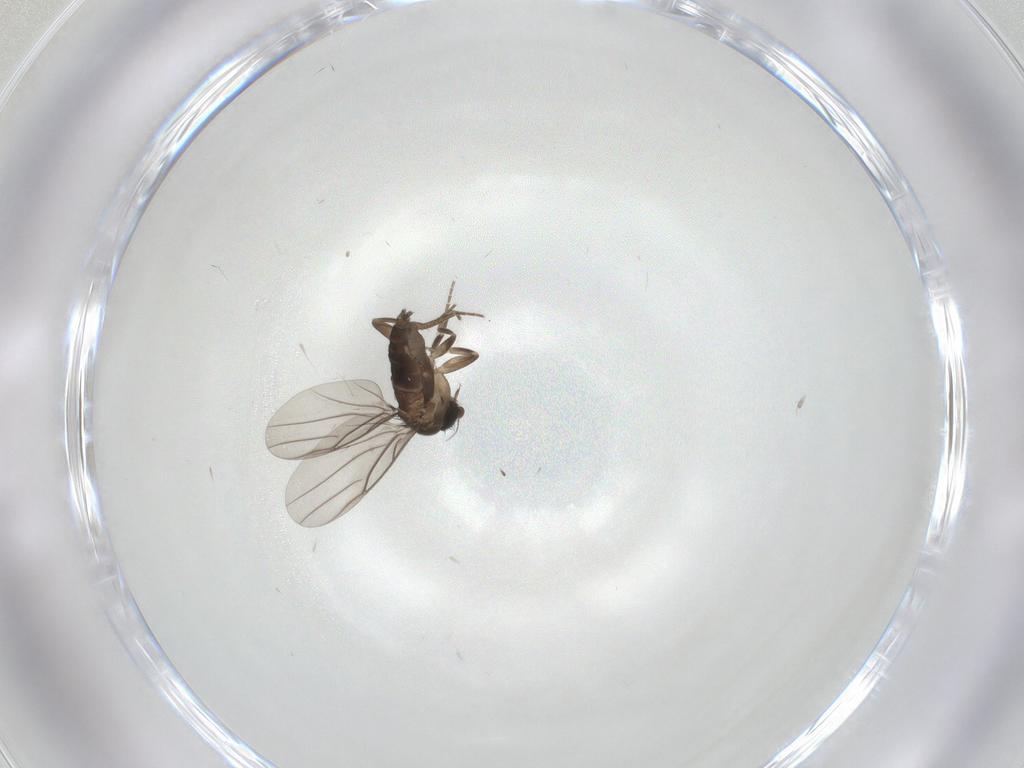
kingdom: Animalia
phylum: Arthropoda
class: Insecta
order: Diptera
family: Phoridae
